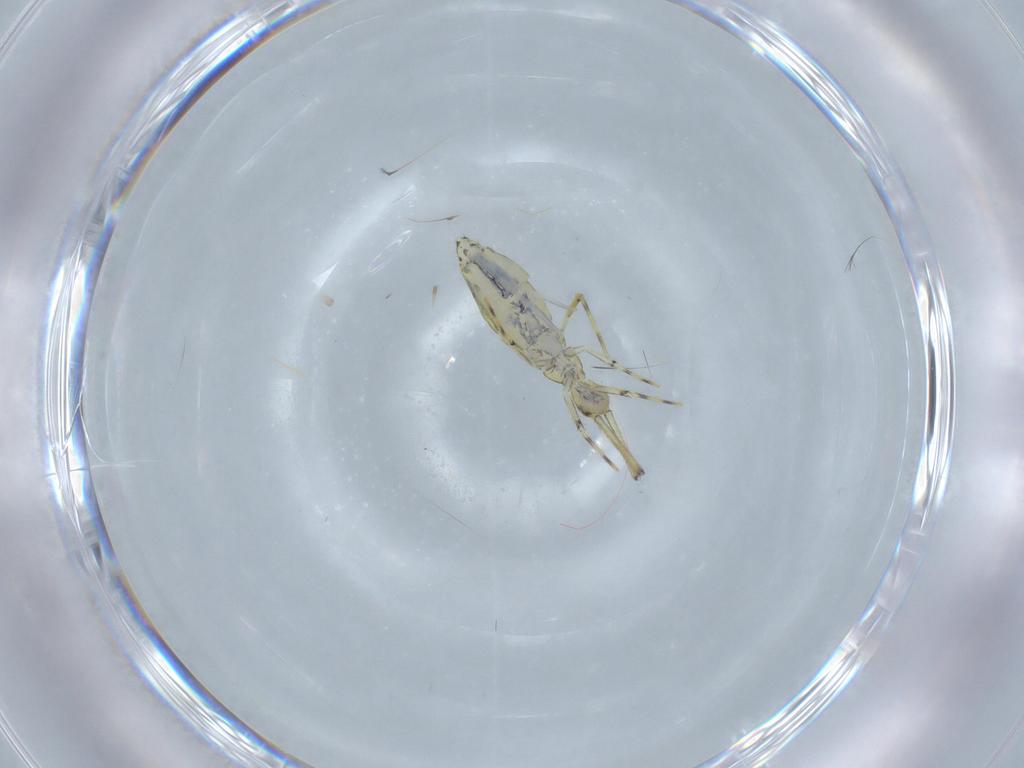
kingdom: Animalia
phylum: Arthropoda
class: Collembola
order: Entomobryomorpha
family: Paronellidae
